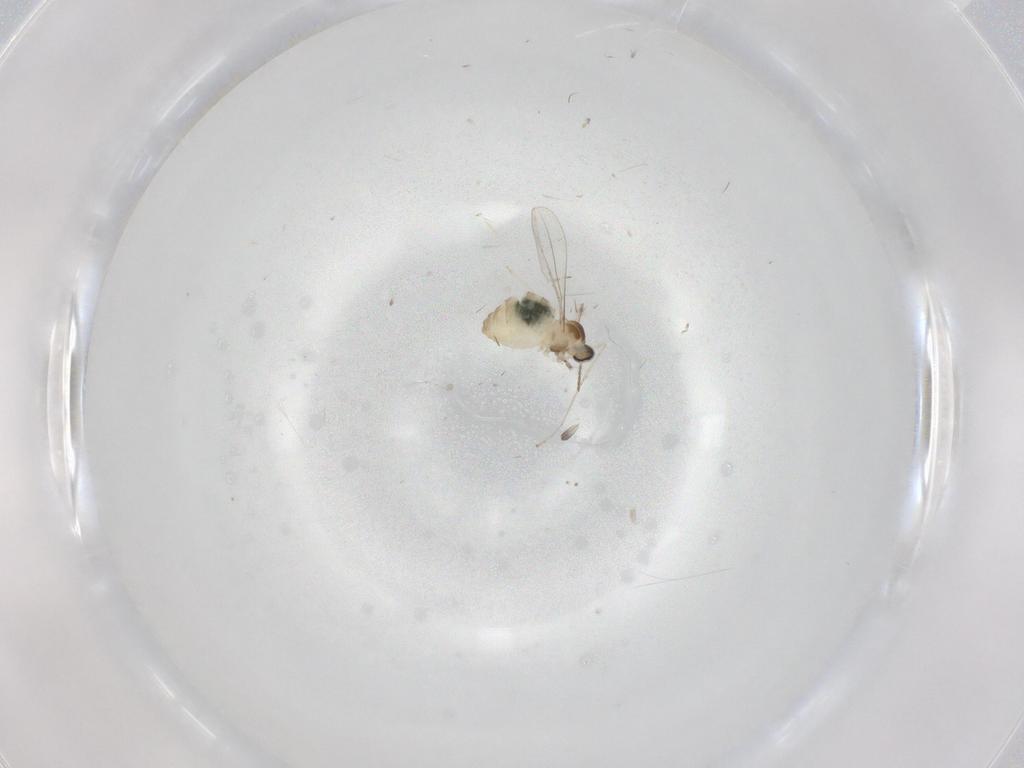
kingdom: Animalia
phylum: Arthropoda
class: Insecta
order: Diptera
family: Cecidomyiidae
